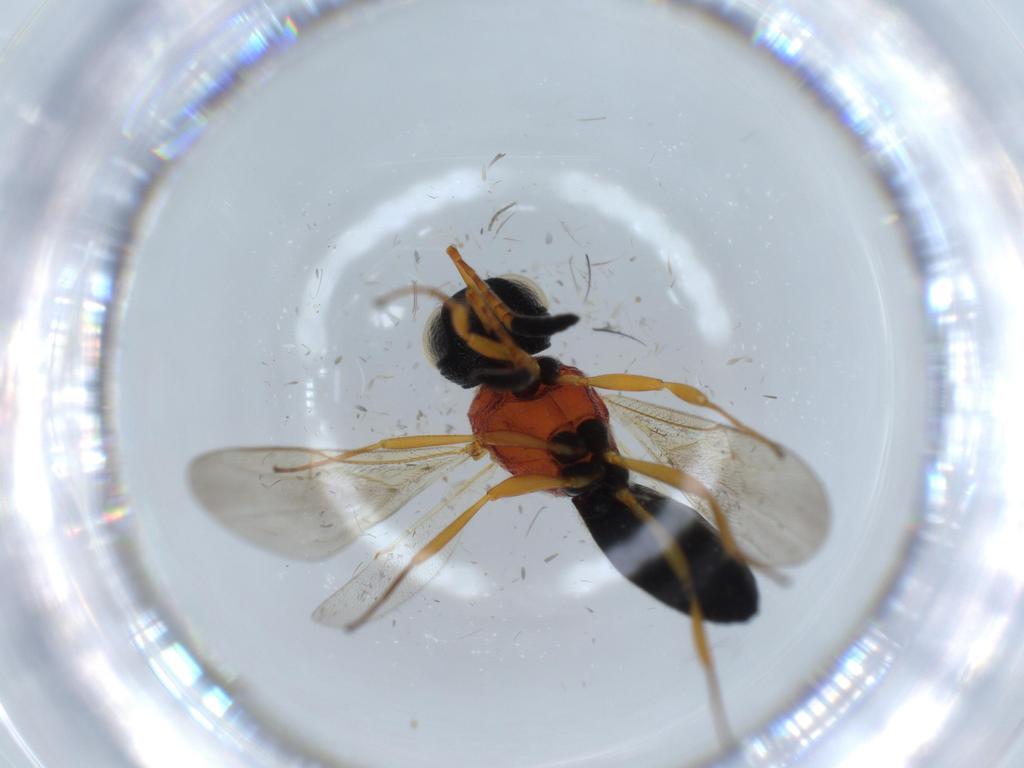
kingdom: Animalia
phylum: Arthropoda
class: Insecta
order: Hymenoptera
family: Scelionidae
